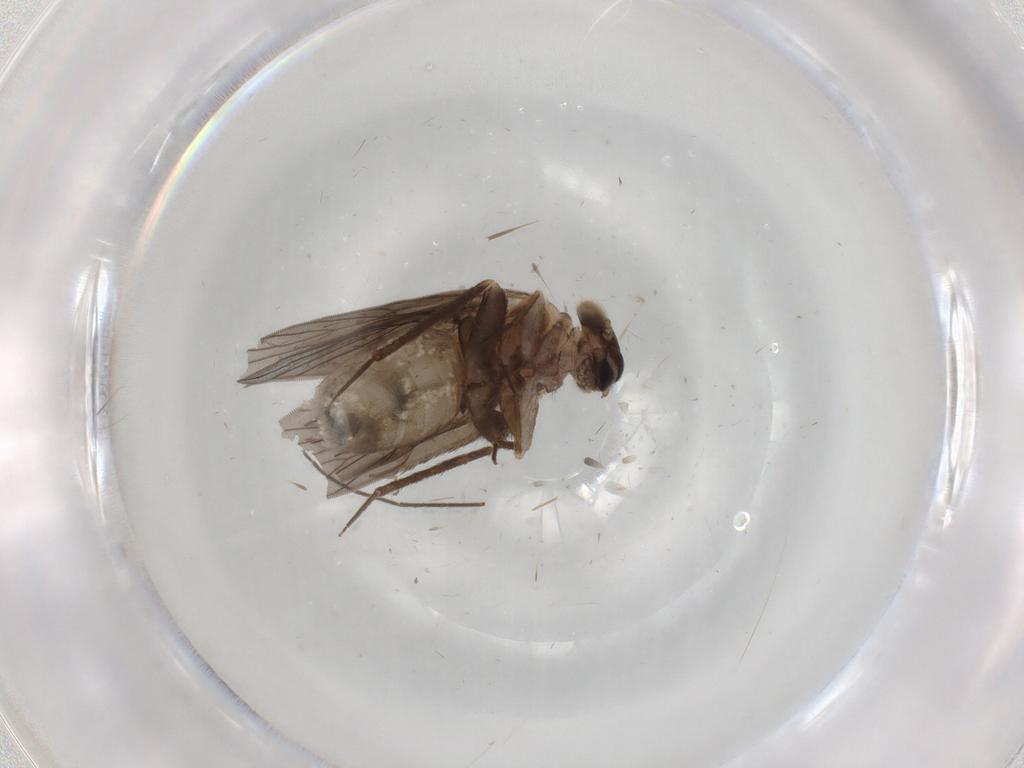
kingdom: Animalia
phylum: Arthropoda
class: Insecta
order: Psocodea
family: Lepidopsocidae
